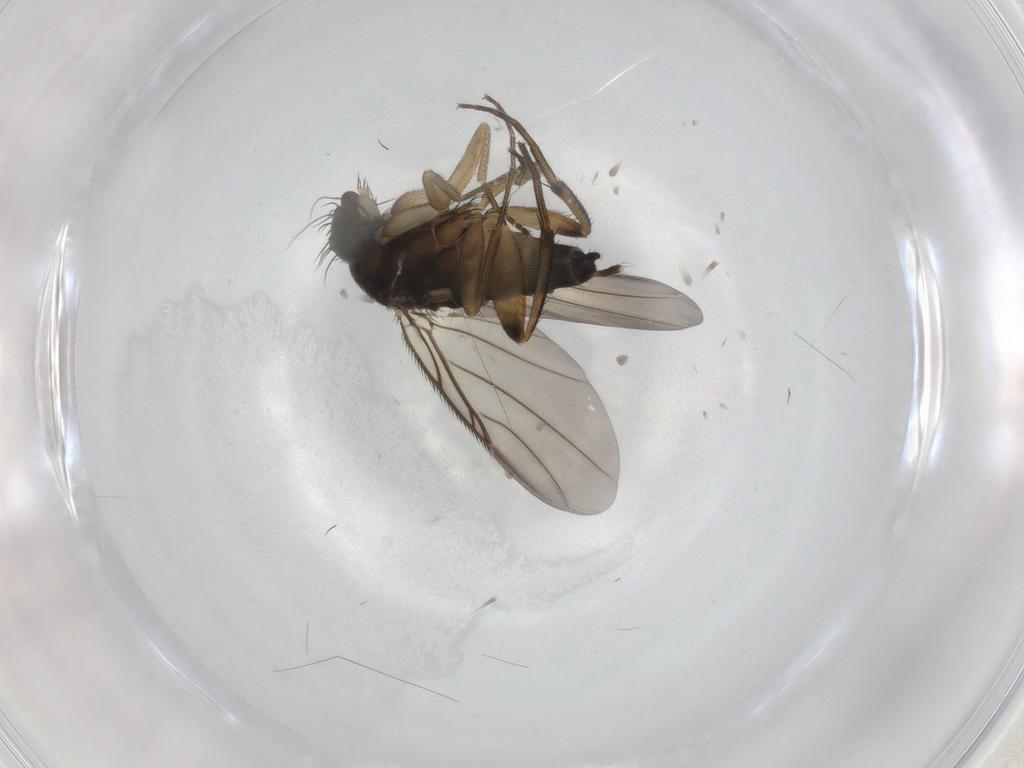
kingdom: Animalia
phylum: Arthropoda
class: Insecta
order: Diptera
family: Phoridae
